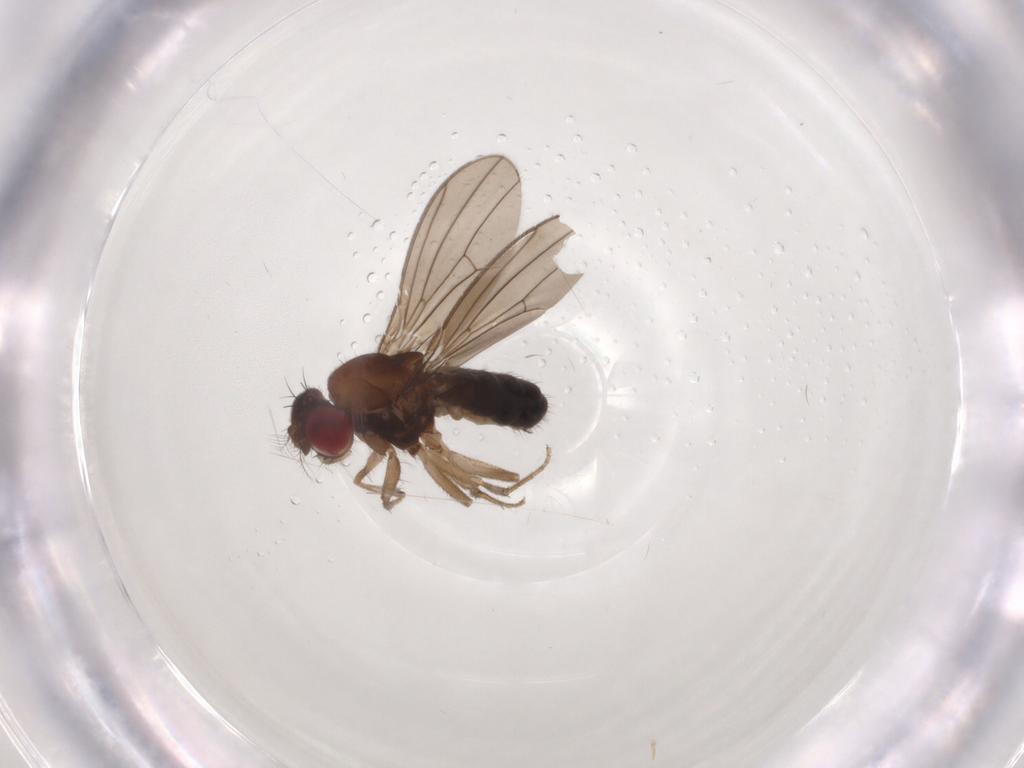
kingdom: Animalia
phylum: Arthropoda
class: Insecta
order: Diptera
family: Drosophilidae
